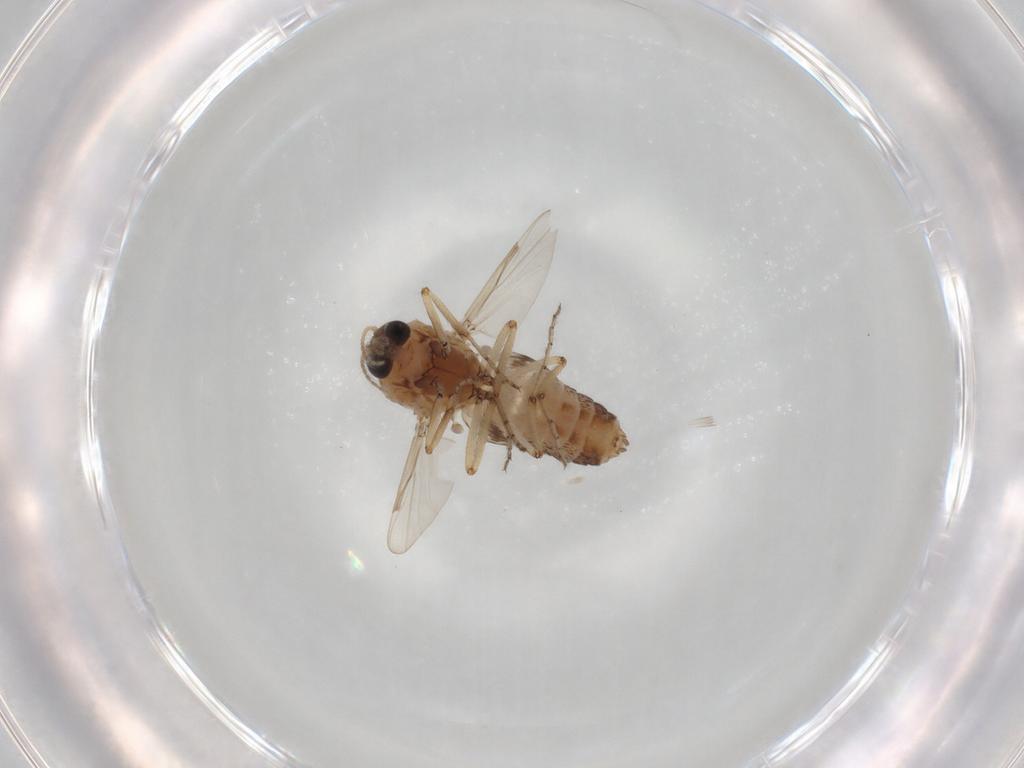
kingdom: Animalia
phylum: Arthropoda
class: Insecta
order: Diptera
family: Ceratopogonidae
